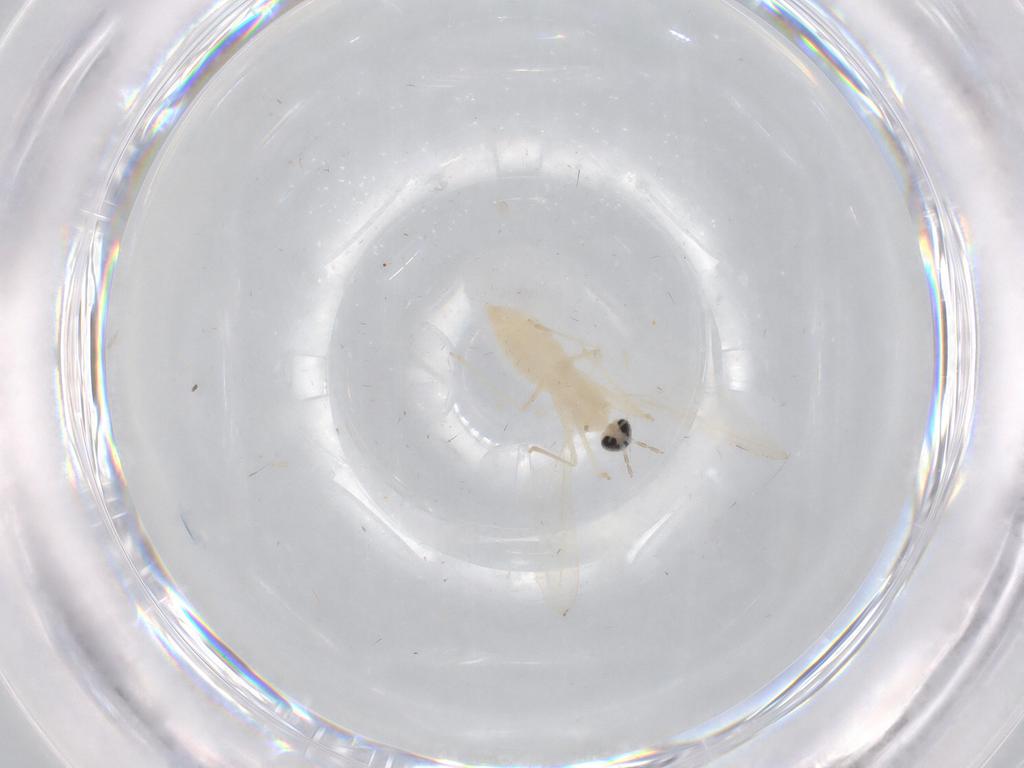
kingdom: Animalia
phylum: Arthropoda
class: Insecta
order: Diptera
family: Cecidomyiidae
